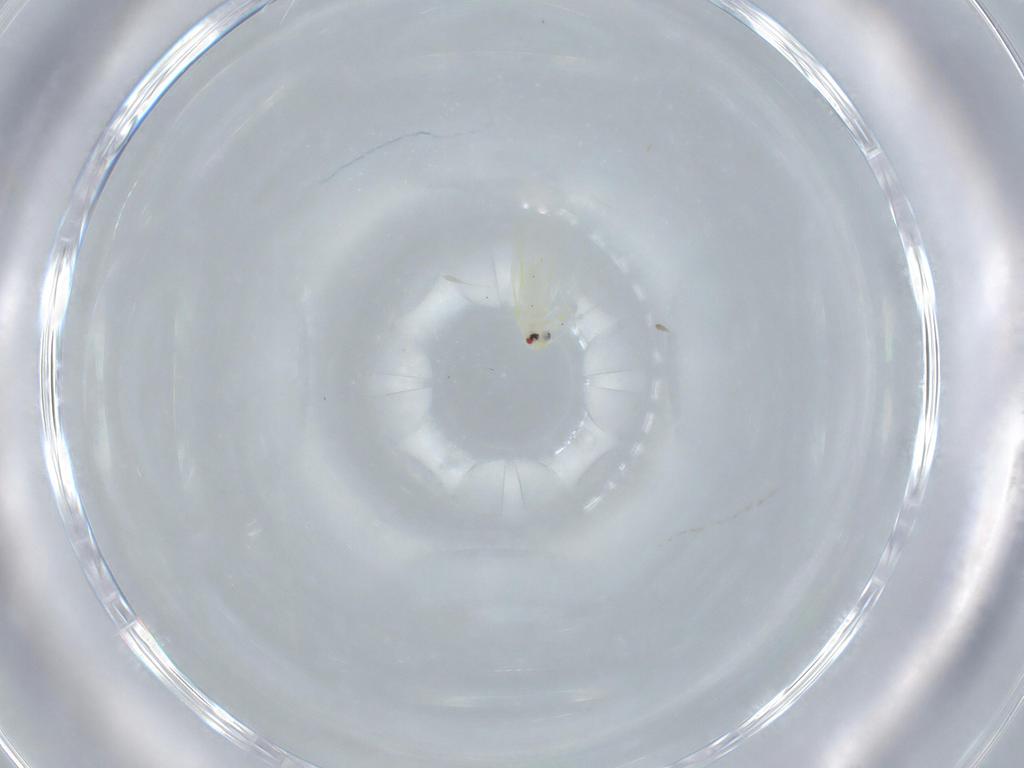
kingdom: Animalia
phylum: Arthropoda
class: Insecta
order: Hemiptera
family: Aleyrodidae
